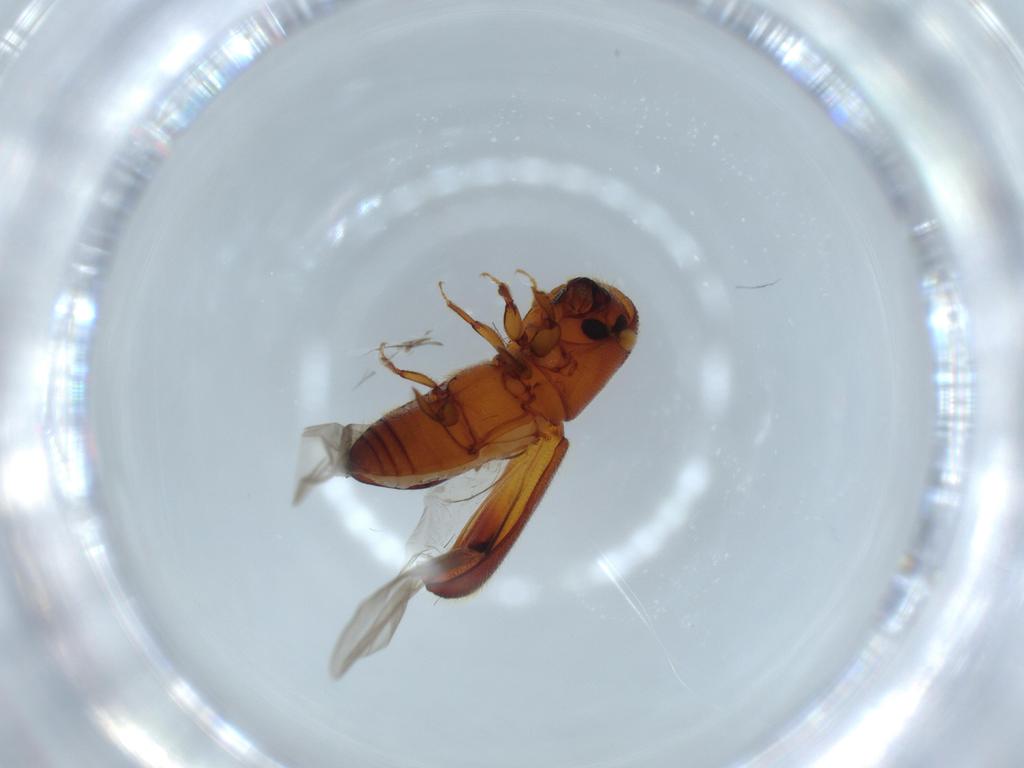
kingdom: Animalia
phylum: Arthropoda
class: Insecta
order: Coleoptera
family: Curculionidae
